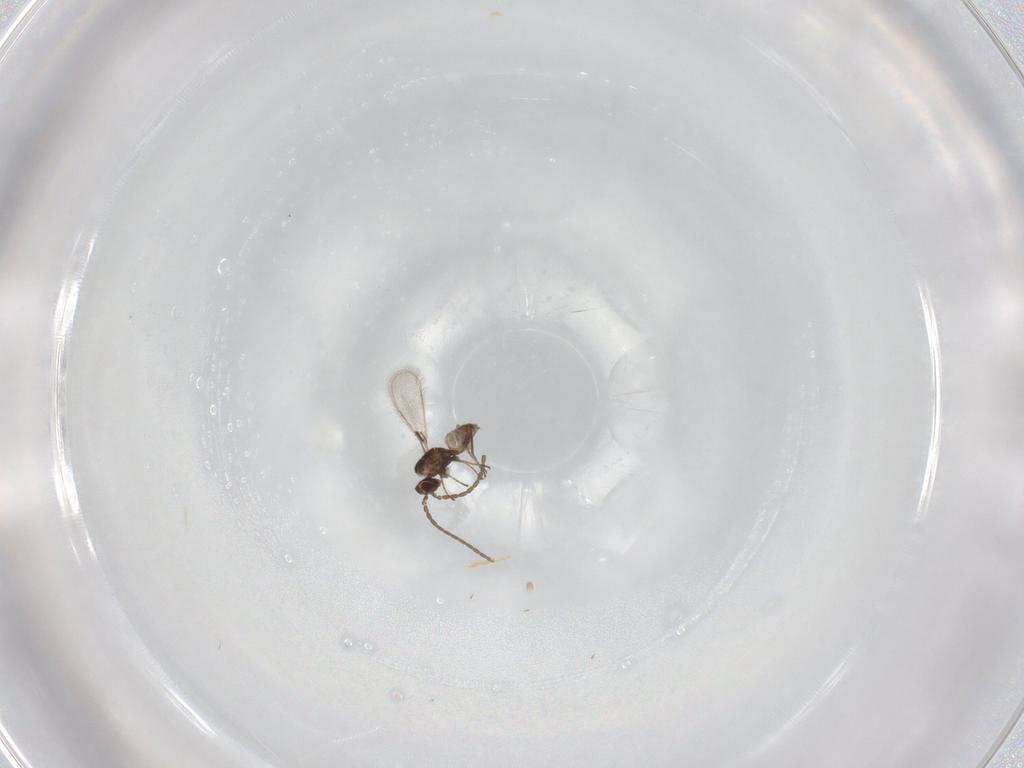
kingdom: Animalia
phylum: Arthropoda
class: Insecta
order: Hymenoptera
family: Mymaridae
